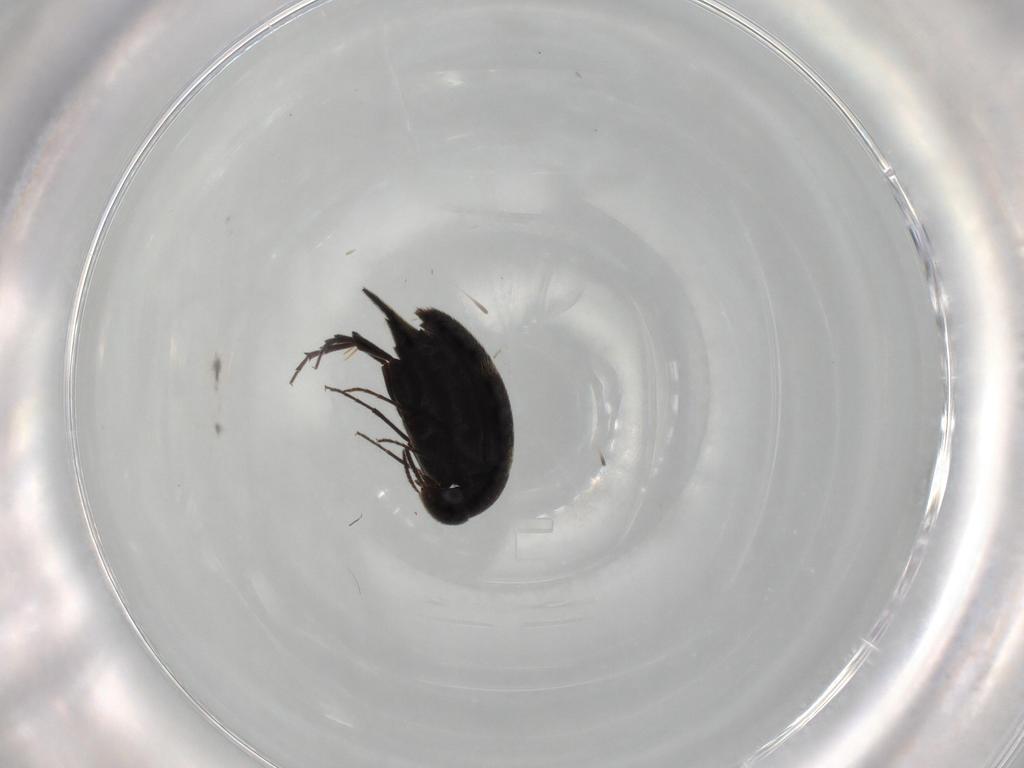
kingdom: Animalia
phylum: Arthropoda
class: Insecta
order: Coleoptera
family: Mordellidae
